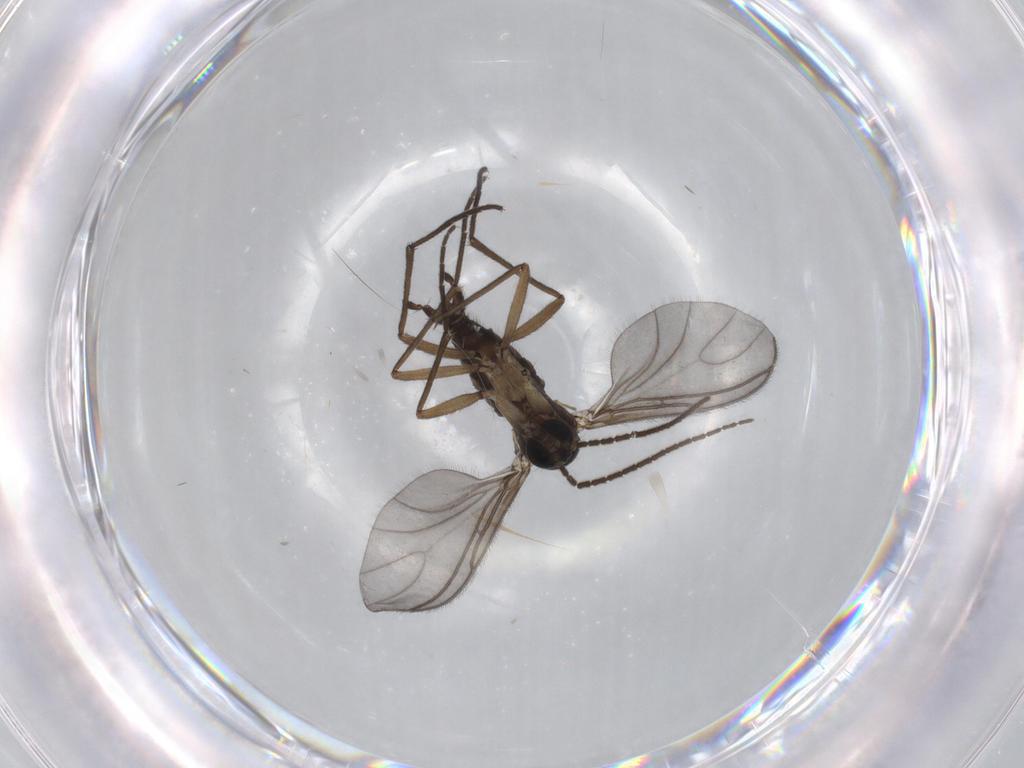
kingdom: Animalia
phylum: Arthropoda
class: Insecta
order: Diptera
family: Sciaridae
